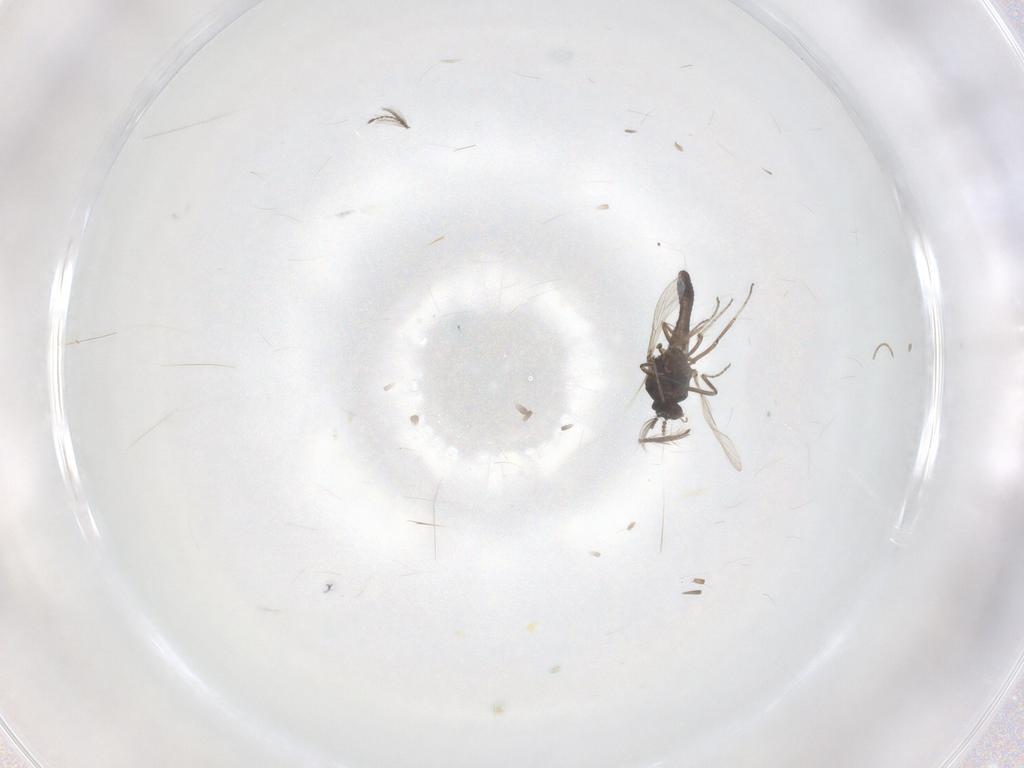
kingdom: Animalia
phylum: Arthropoda
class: Insecta
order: Diptera
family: Ceratopogonidae
